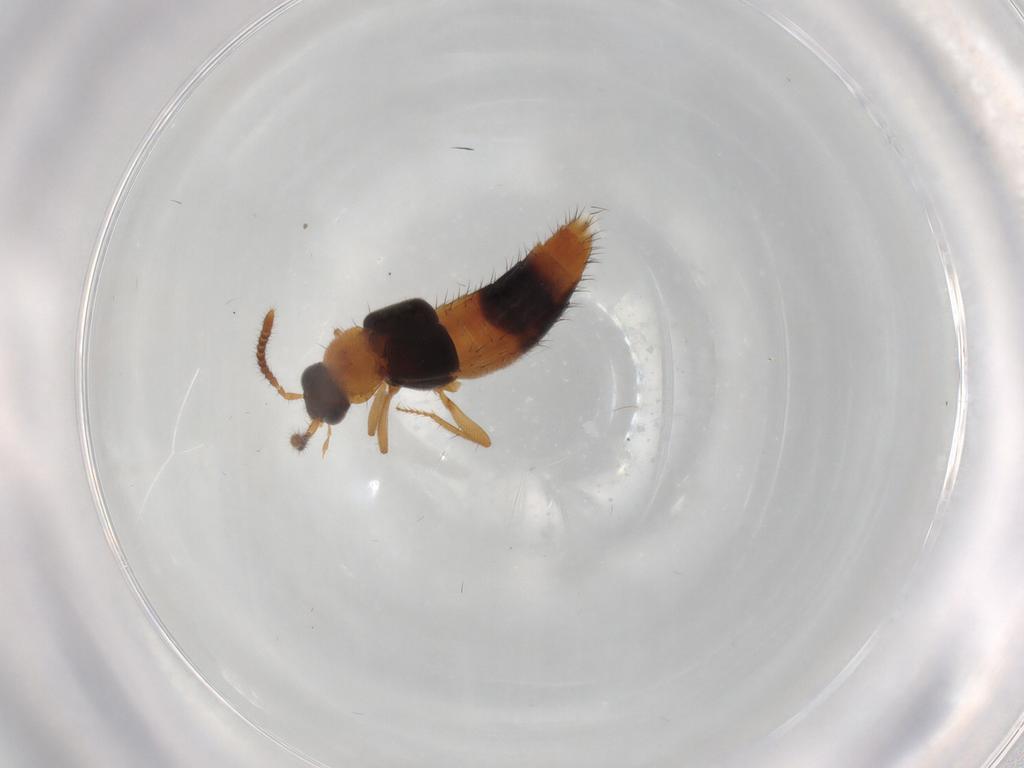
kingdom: Animalia
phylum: Arthropoda
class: Insecta
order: Coleoptera
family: Staphylinidae
